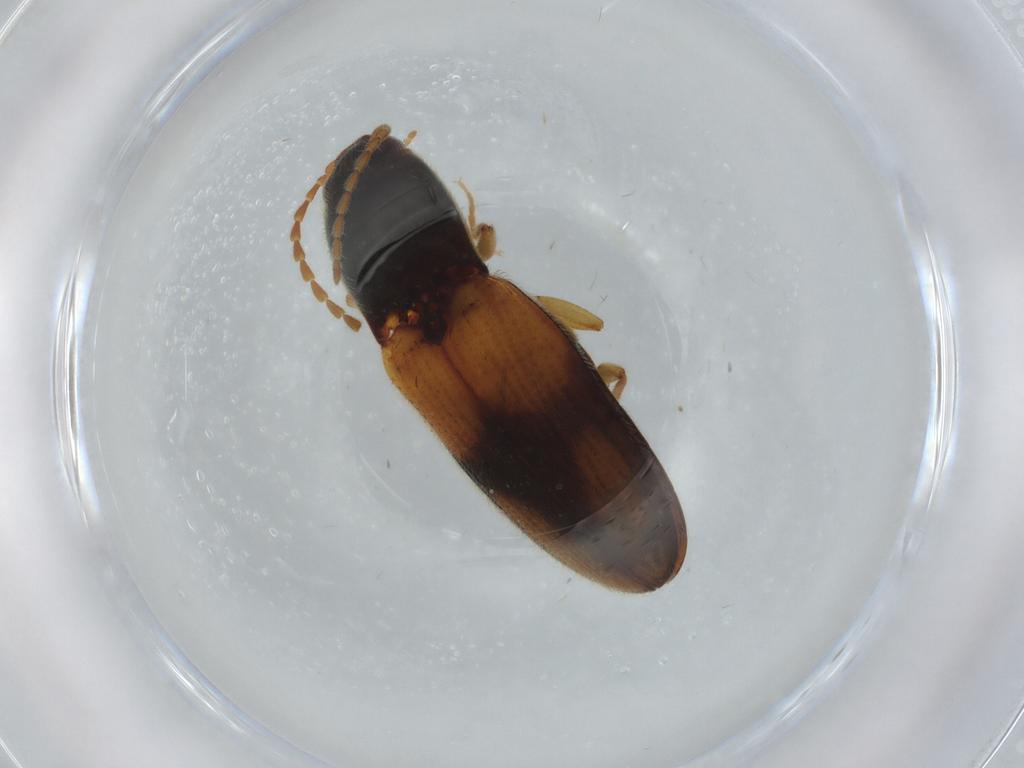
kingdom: Animalia
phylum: Arthropoda
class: Insecta
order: Coleoptera
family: Elateridae
